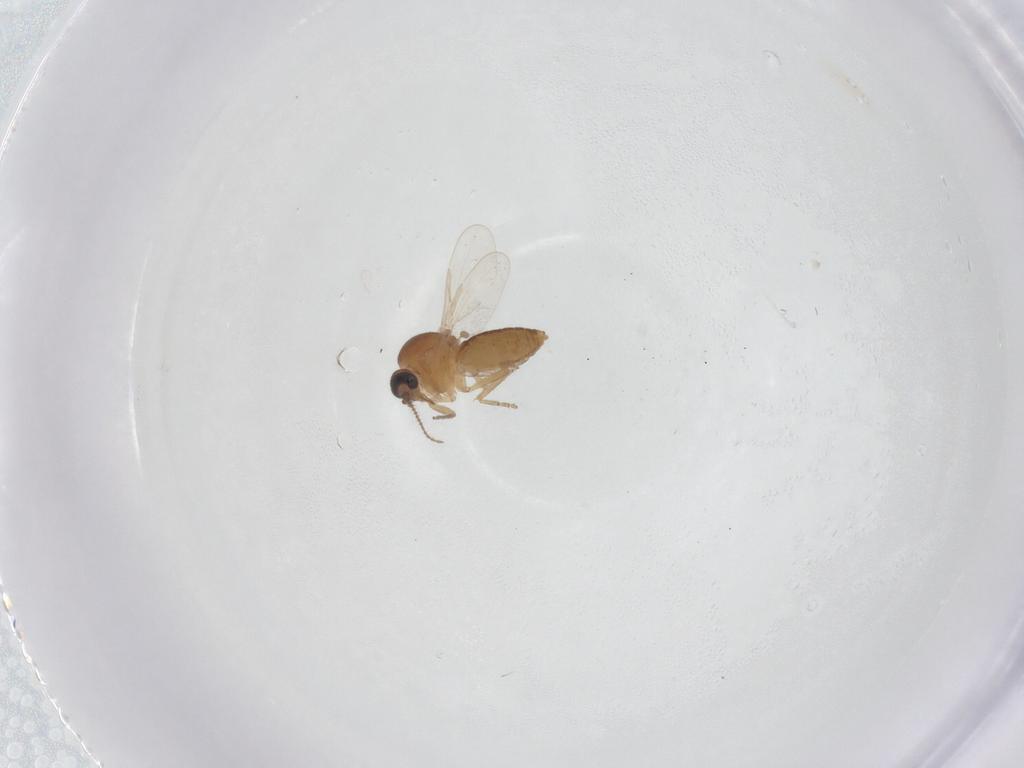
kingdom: Animalia
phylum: Arthropoda
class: Insecta
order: Diptera
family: Ceratopogonidae
